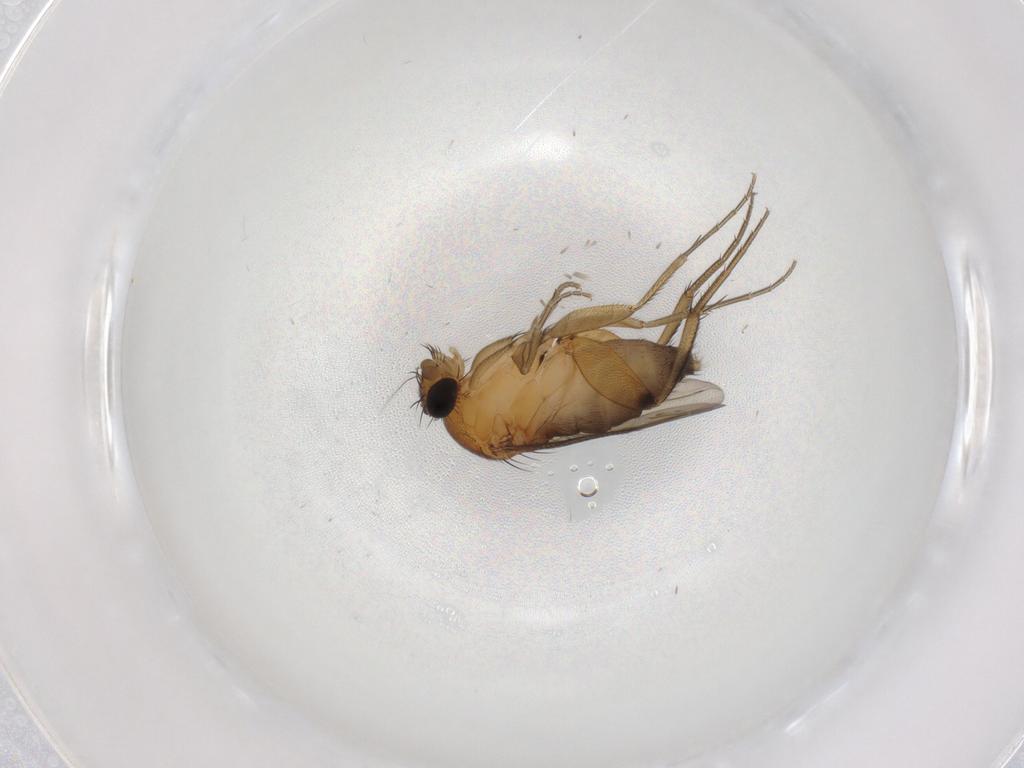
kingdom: Animalia
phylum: Arthropoda
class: Insecta
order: Diptera
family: Phoridae
